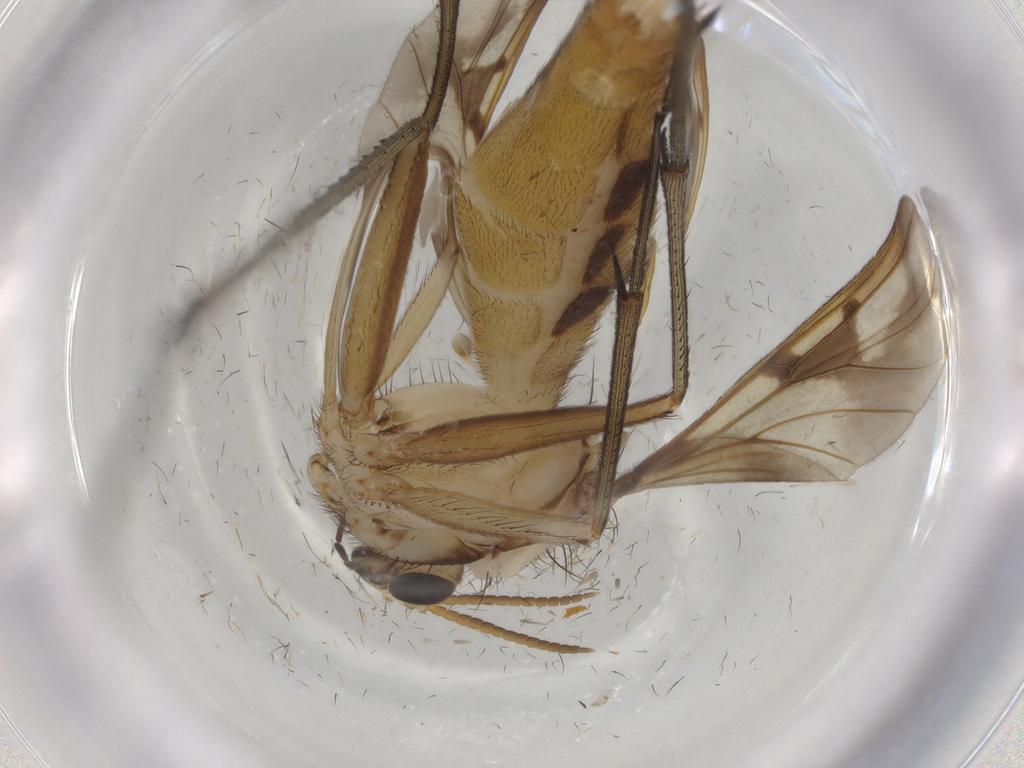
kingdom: Animalia
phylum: Arthropoda
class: Insecta
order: Diptera
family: Mycetophilidae
